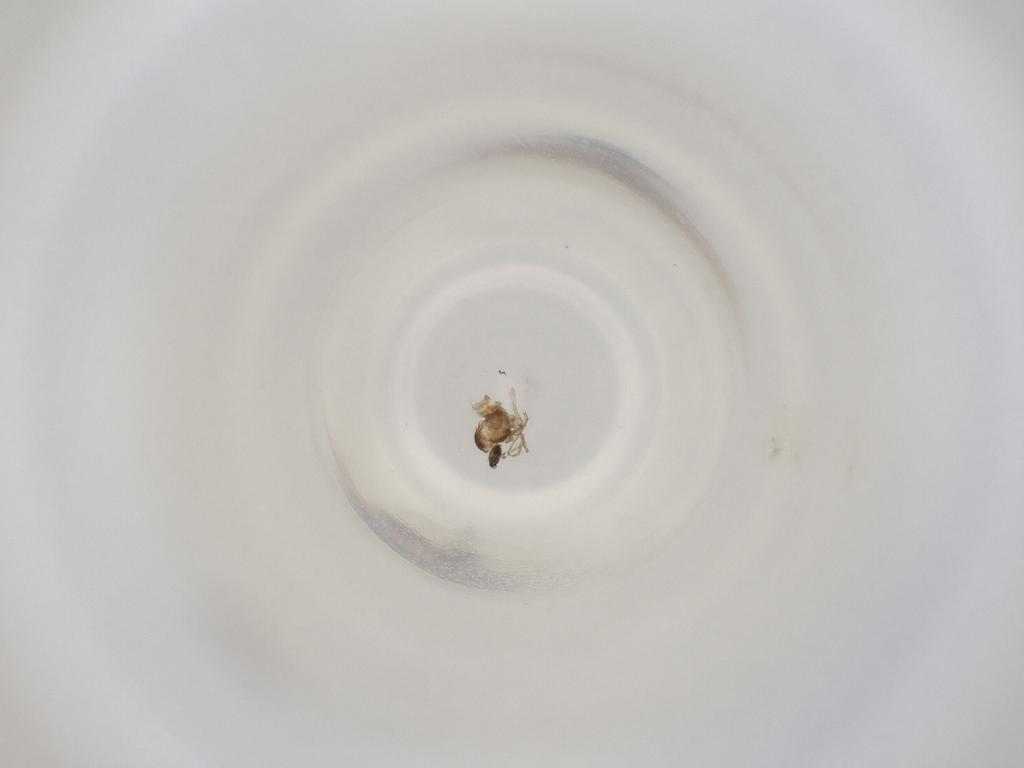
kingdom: Animalia
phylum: Arthropoda
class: Insecta
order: Diptera
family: Cecidomyiidae
